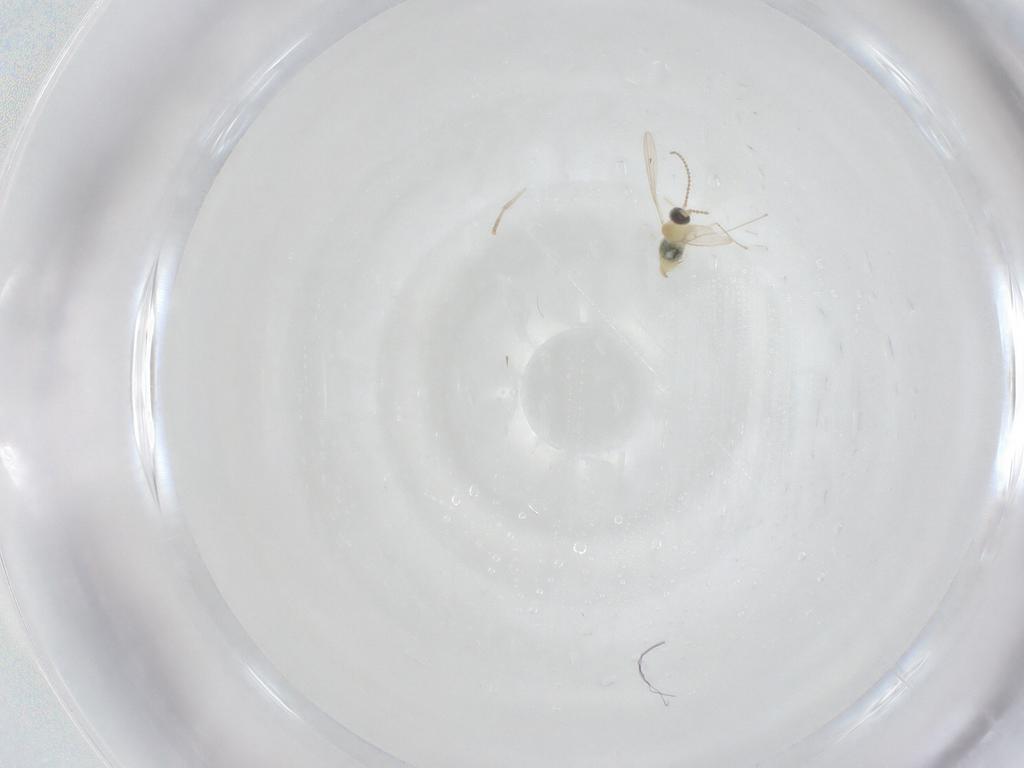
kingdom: Animalia
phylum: Arthropoda
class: Insecta
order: Diptera
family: Psychodidae
